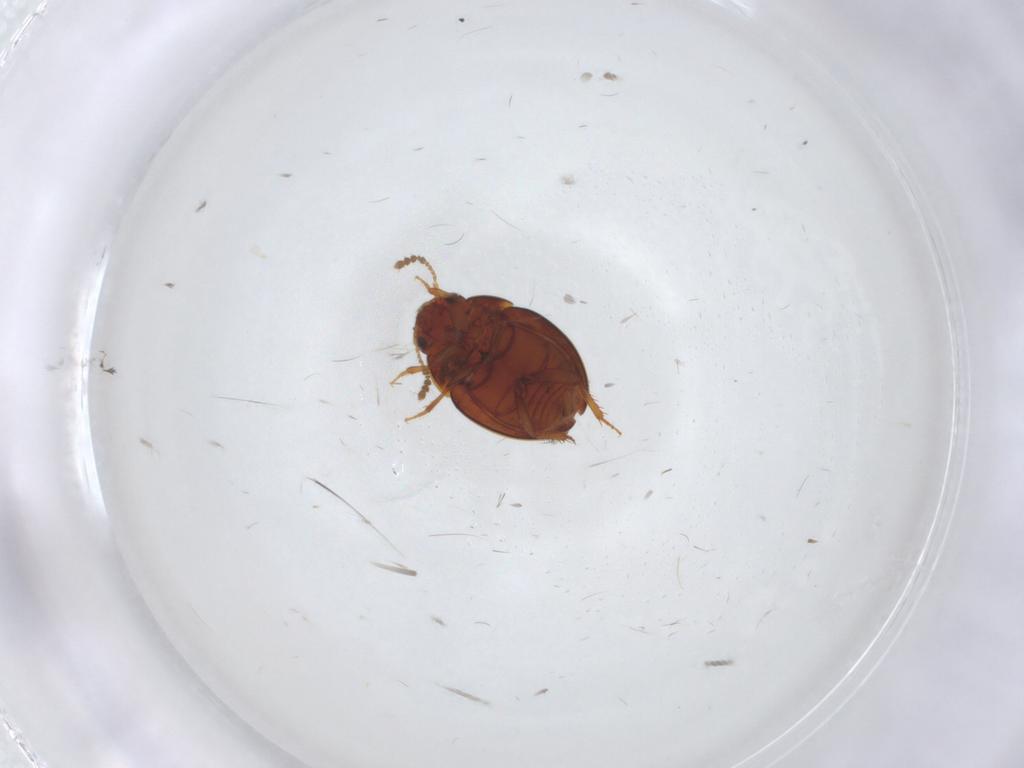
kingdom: Animalia
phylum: Arthropoda
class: Insecta
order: Coleoptera
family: Leiodidae
